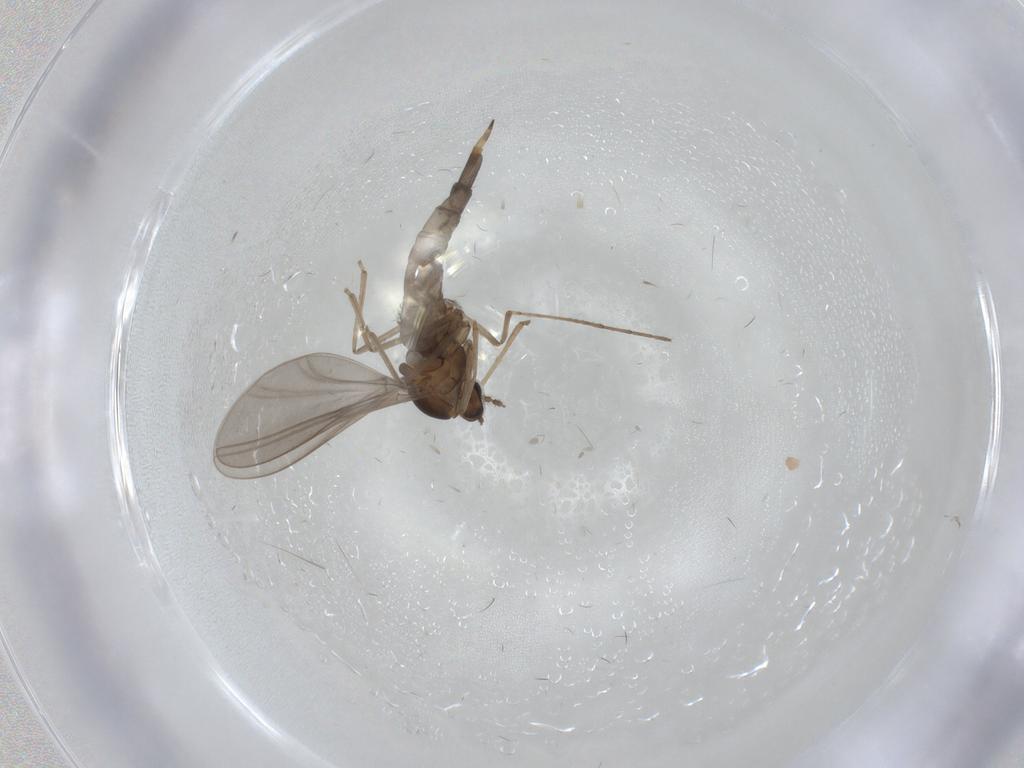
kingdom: Animalia
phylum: Arthropoda
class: Insecta
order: Diptera
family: Cecidomyiidae
